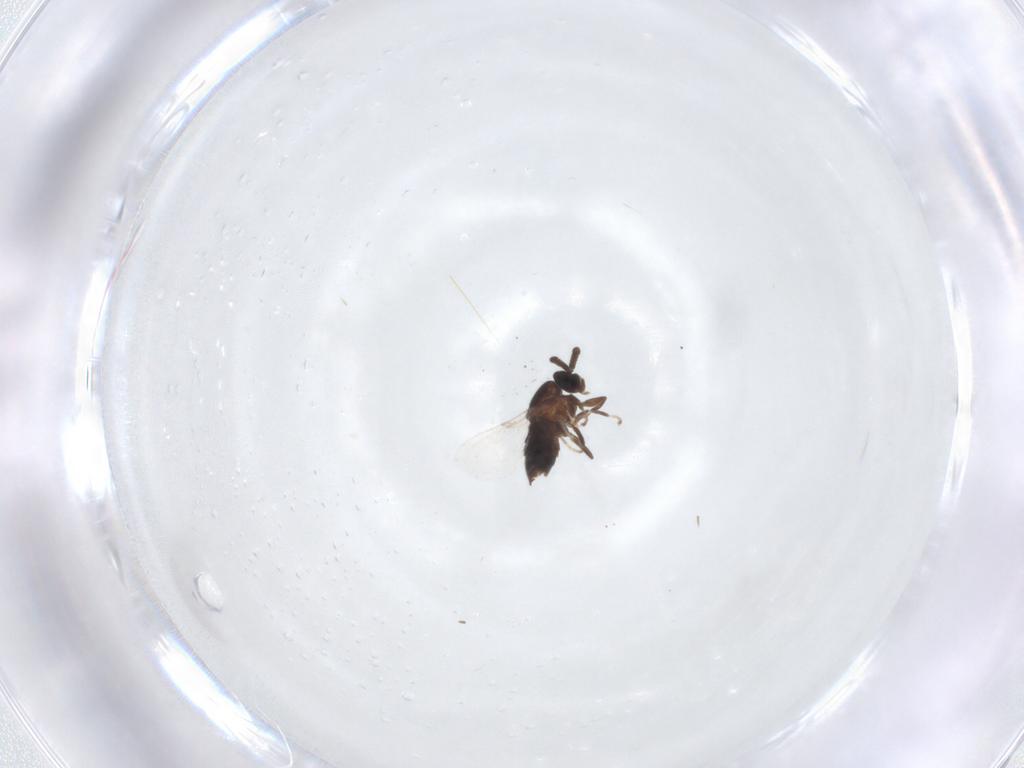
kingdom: Animalia
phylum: Arthropoda
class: Insecta
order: Diptera
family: Scatopsidae
